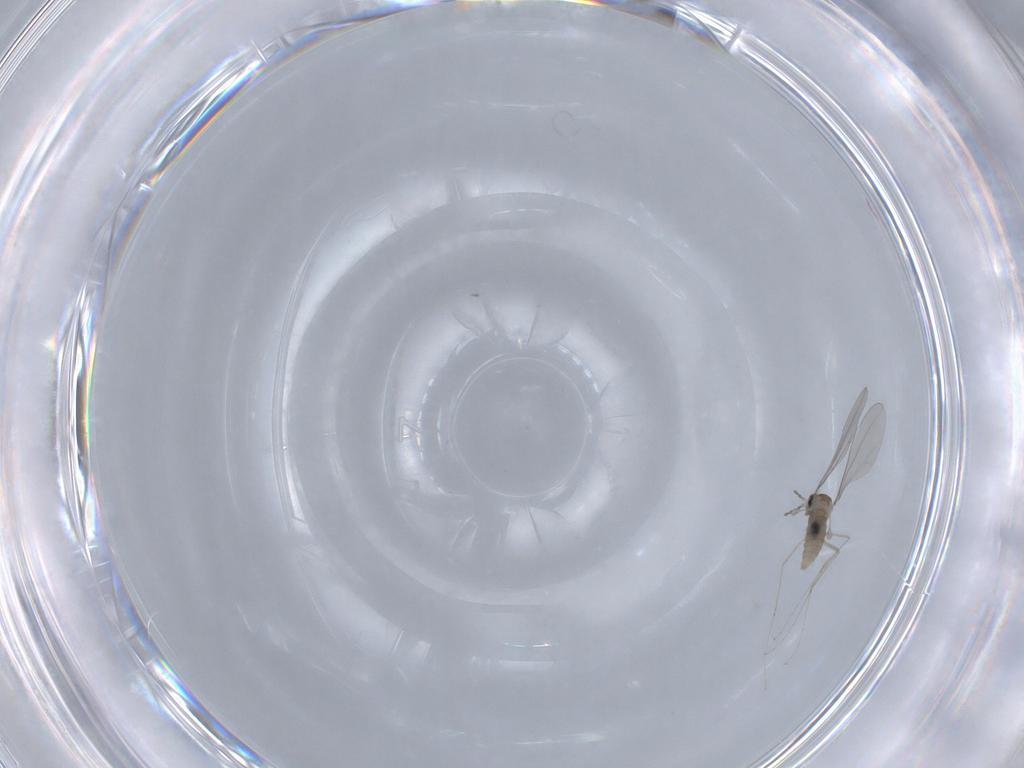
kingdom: Animalia
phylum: Arthropoda
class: Insecta
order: Diptera
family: Cecidomyiidae
